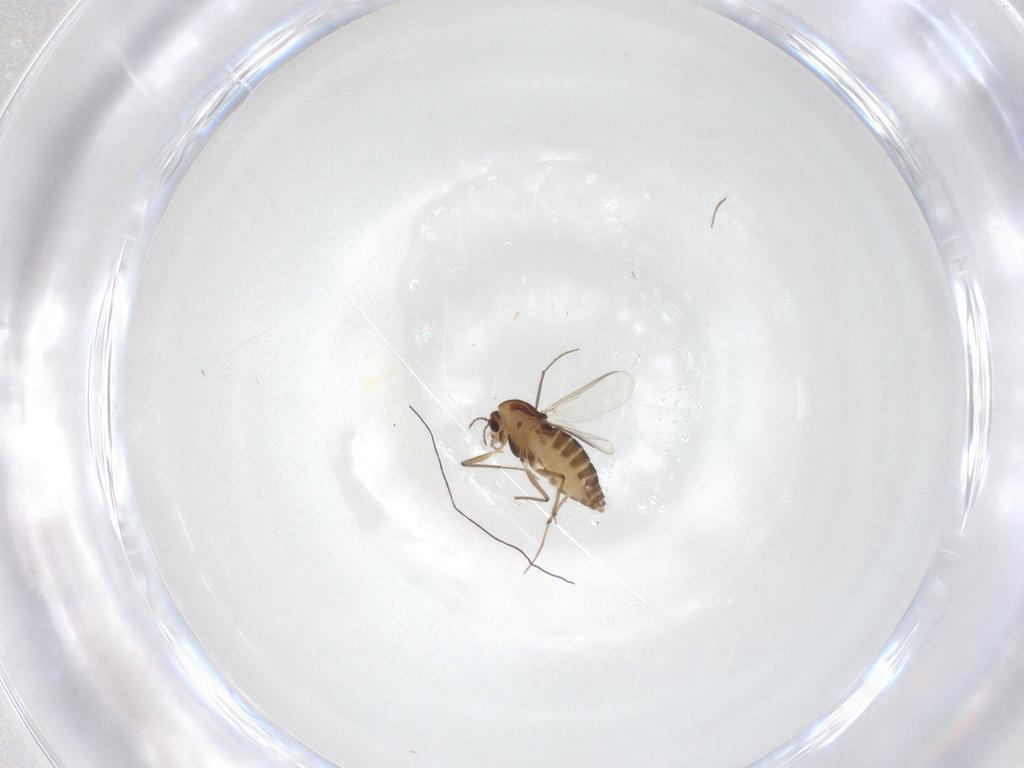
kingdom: Animalia
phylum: Arthropoda
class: Insecta
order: Diptera
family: Chironomidae
